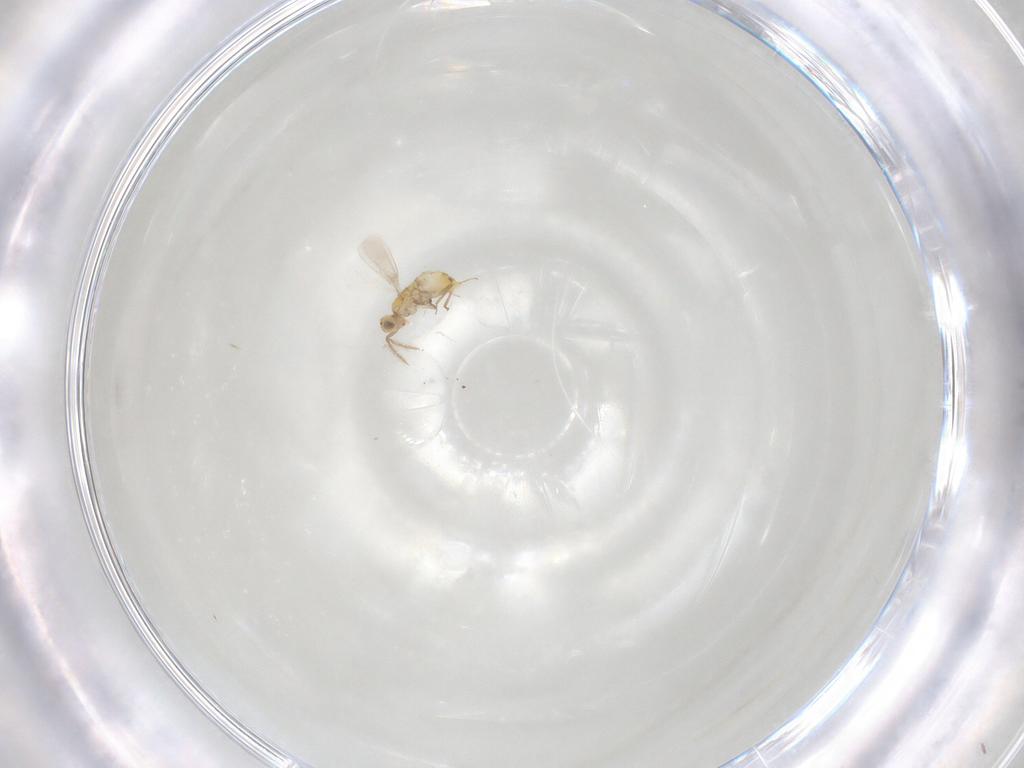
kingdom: Animalia
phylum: Arthropoda
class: Insecta
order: Hymenoptera
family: Aphelinidae
